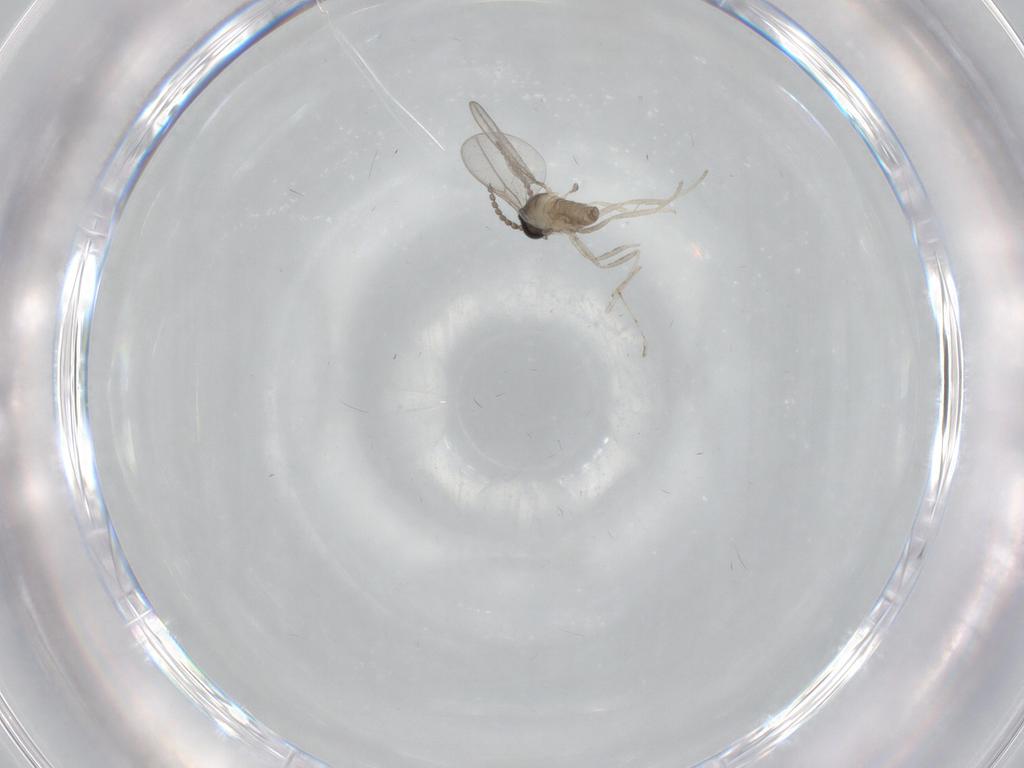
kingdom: Animalia
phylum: Arthropoda
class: Insecta
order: Diptera
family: Cecidomyiidae
